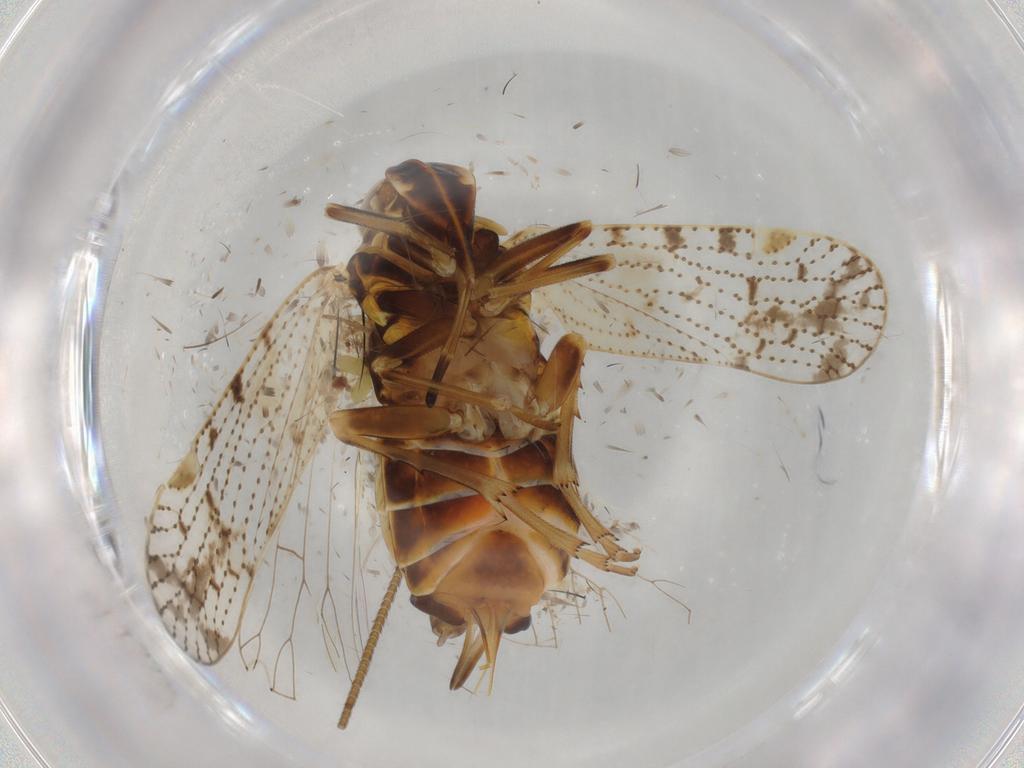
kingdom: Animalia
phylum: Arthropoda
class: Insecta
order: Hemiptera
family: Cixiidae
